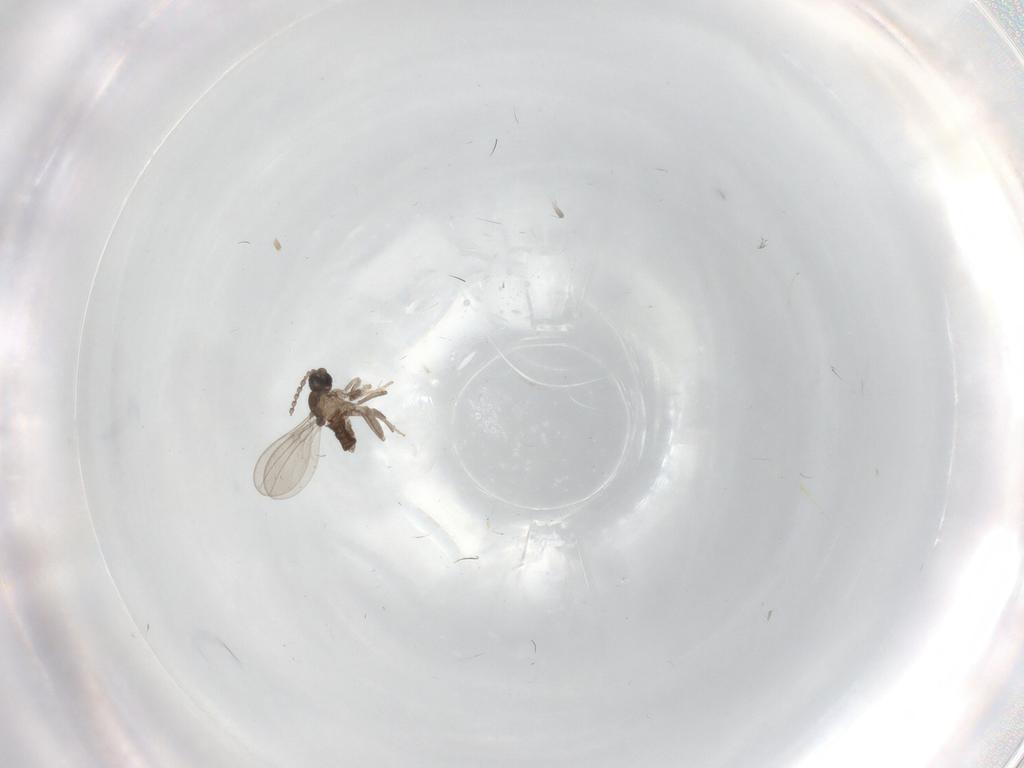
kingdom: Animalia
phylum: Arthropoda
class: Insecta
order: Diptera
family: Cecidomyiidae
